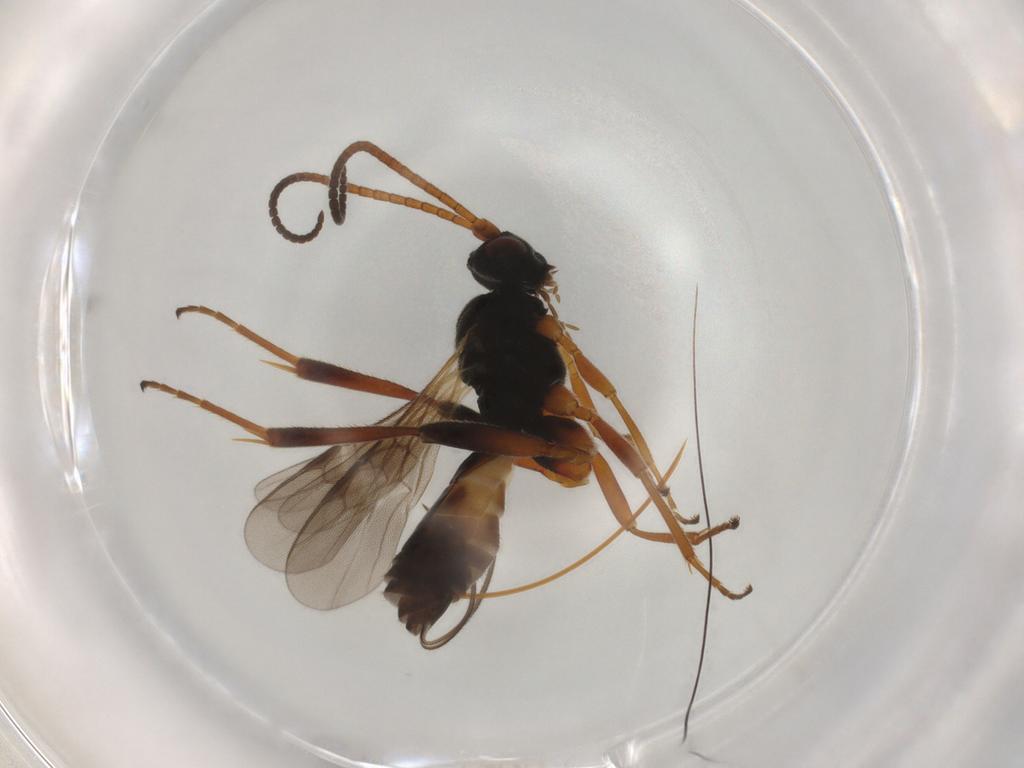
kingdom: Animalia
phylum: Arthropoda
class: Insecta
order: Hymenoptera
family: Braconidae
